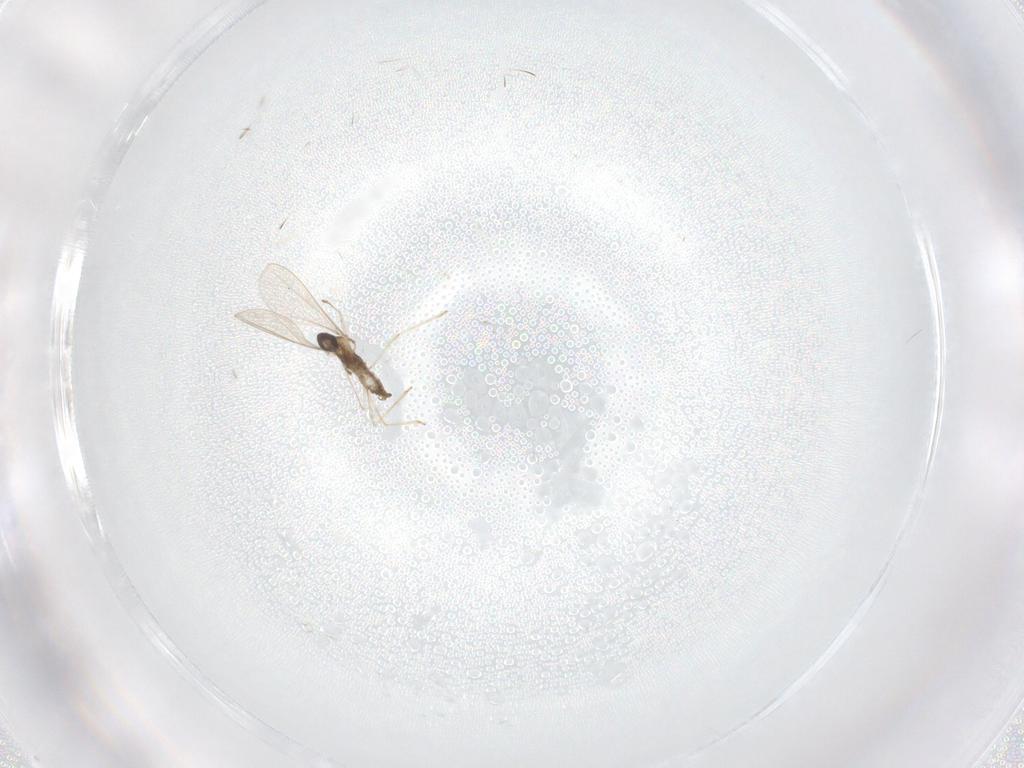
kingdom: Animalia
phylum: Arthropoda
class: Insecta
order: Diptera
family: Cecidomyiidae
